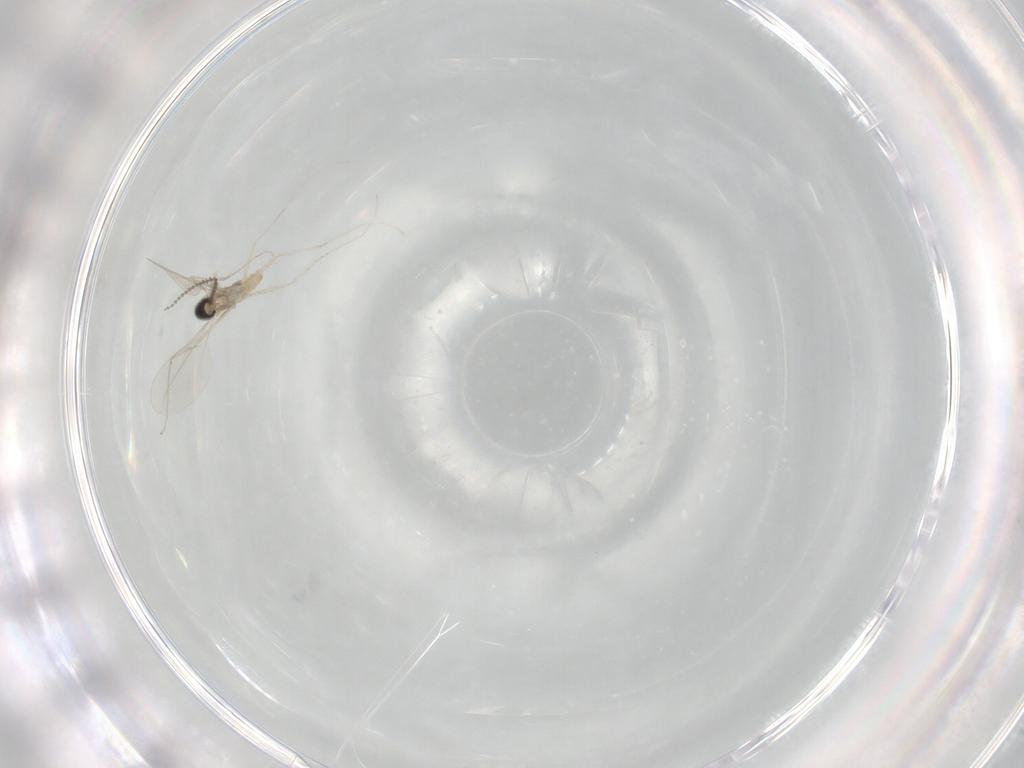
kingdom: Animalia
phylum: Arthropoda
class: Insecta
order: Diptera
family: Cecidomyiidae
